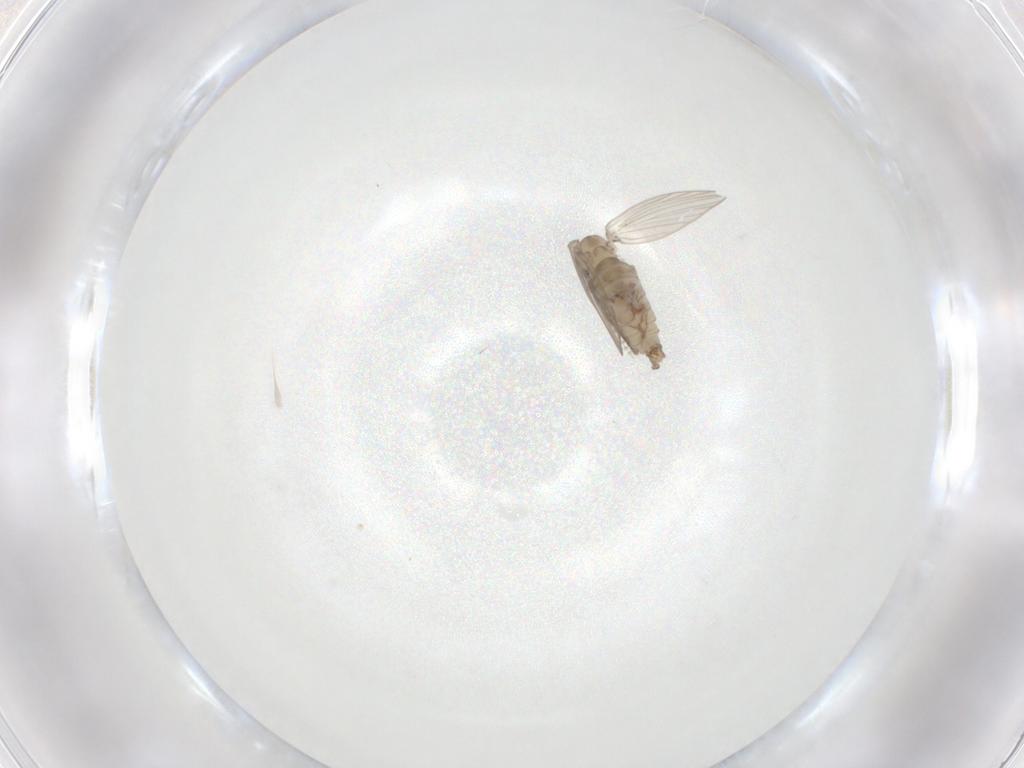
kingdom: Animalia
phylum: Arthropoda
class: Insecta
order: Diptera
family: Psychodidae
